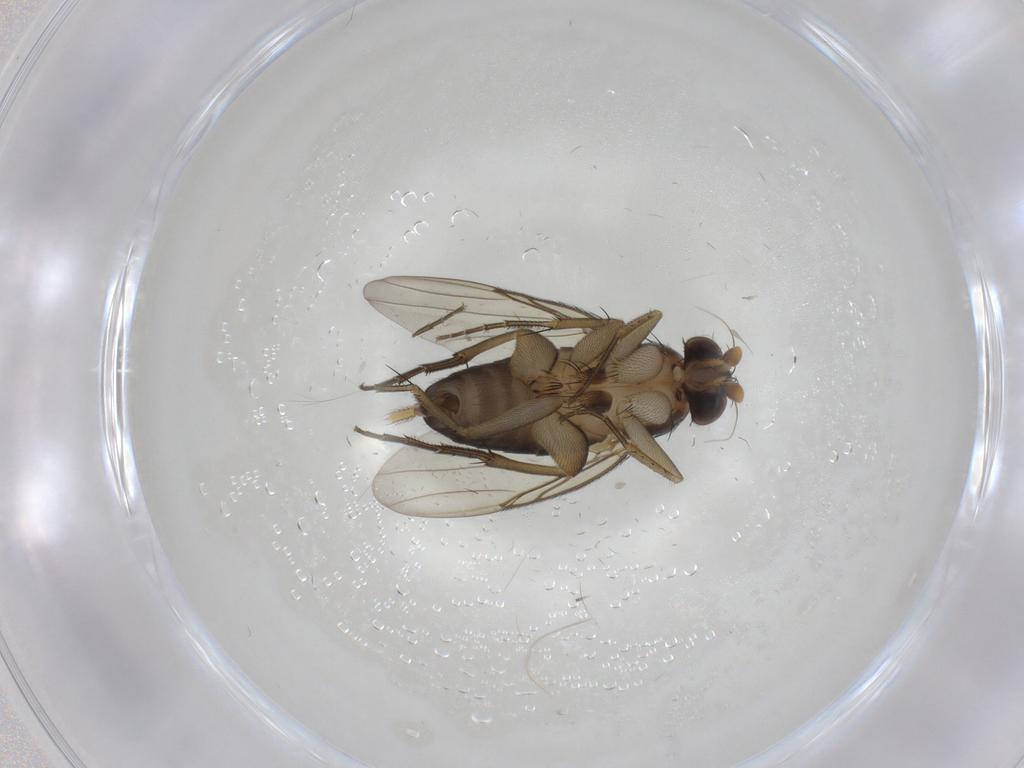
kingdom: Animalia
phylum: Arthropoda
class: Insecta
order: Diptera
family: Phoridae
